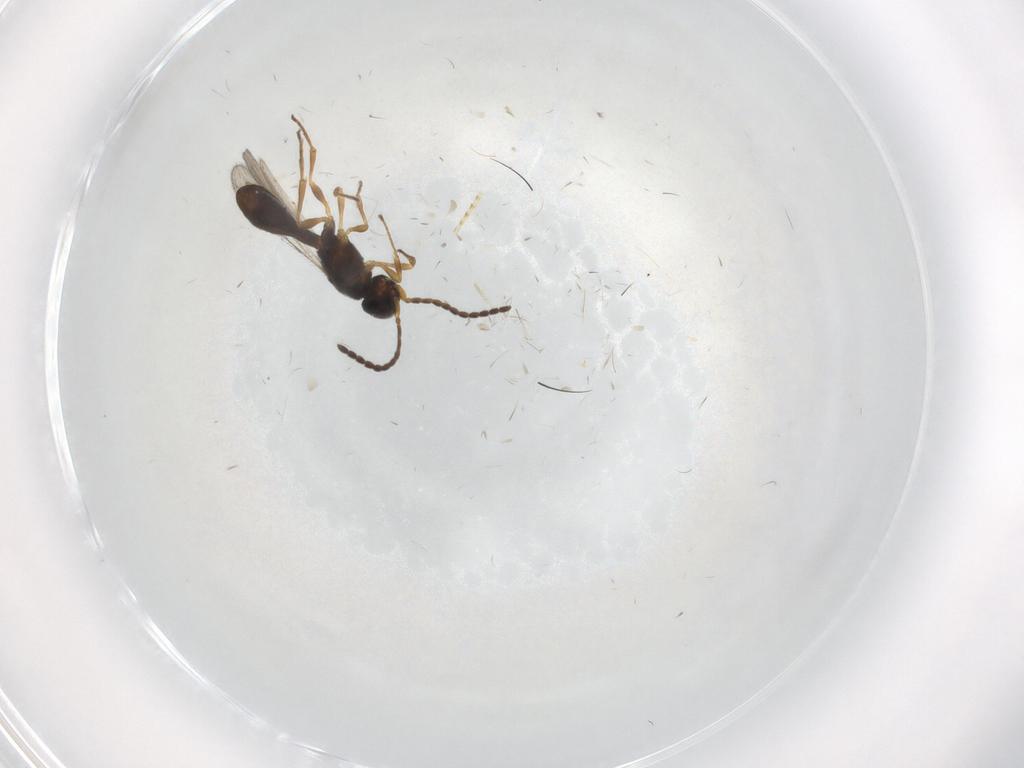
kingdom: Animalia
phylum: Arthropoda
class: Insecta
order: Hymenoptera
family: Scelionidae
